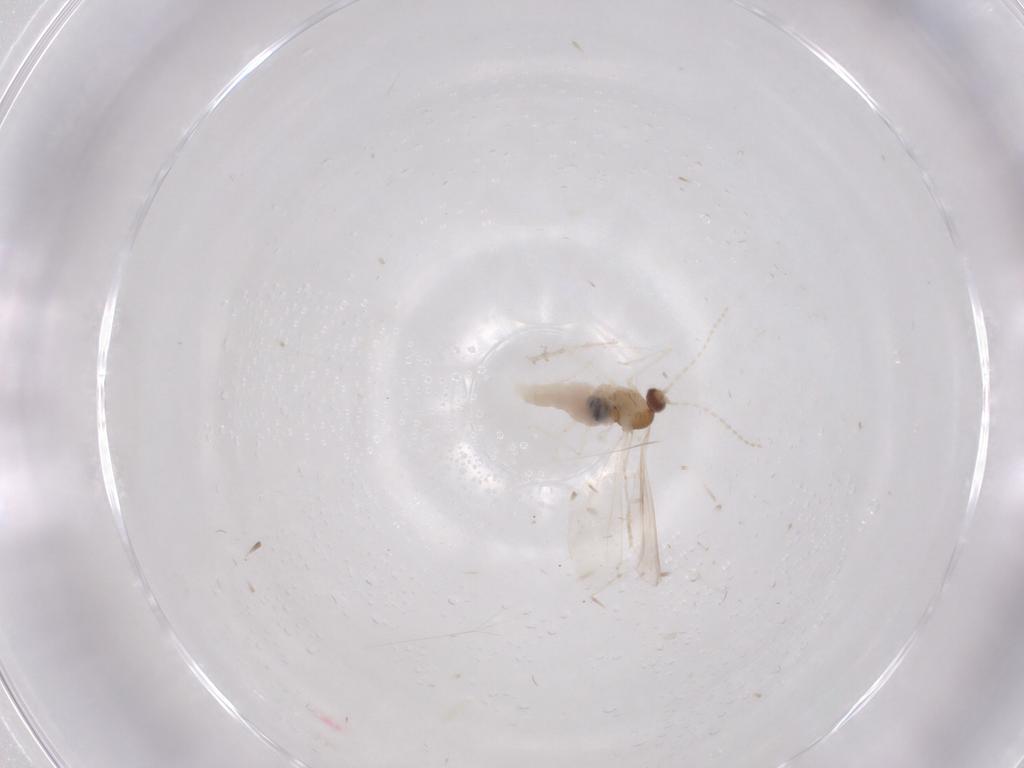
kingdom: Animalia
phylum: Arthropoda
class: Insecta
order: Diptera
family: Cecidomyiidae
